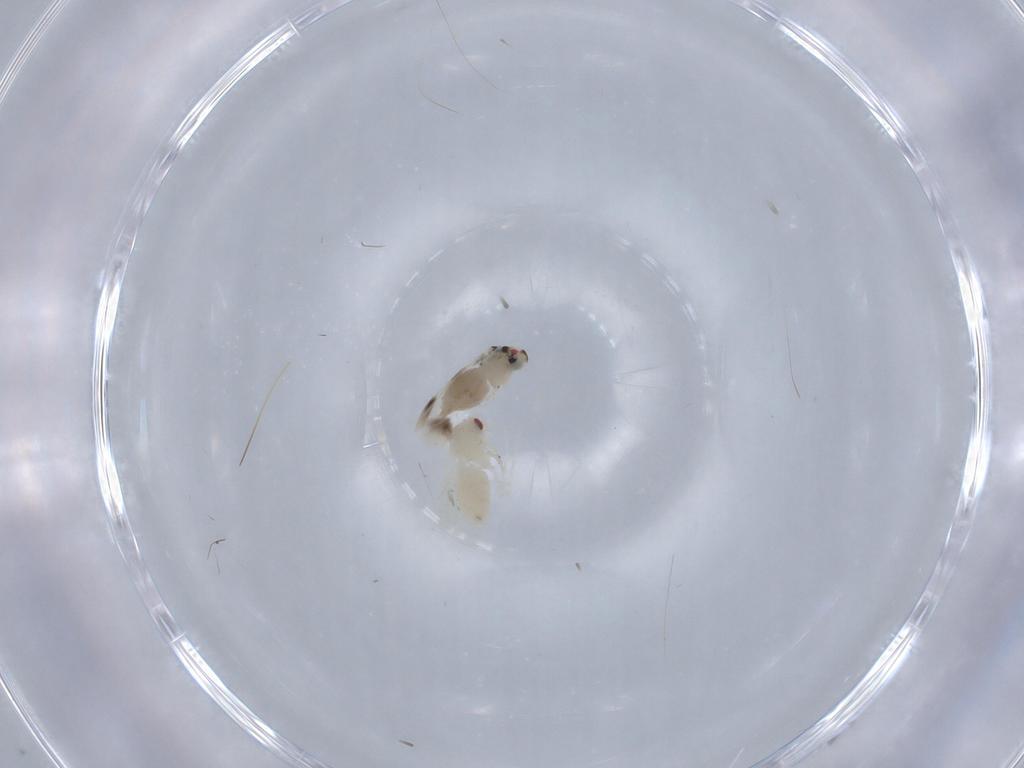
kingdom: Animalia
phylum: Arthropoda
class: Insecta
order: Hemiptera
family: Aleyrodidae
